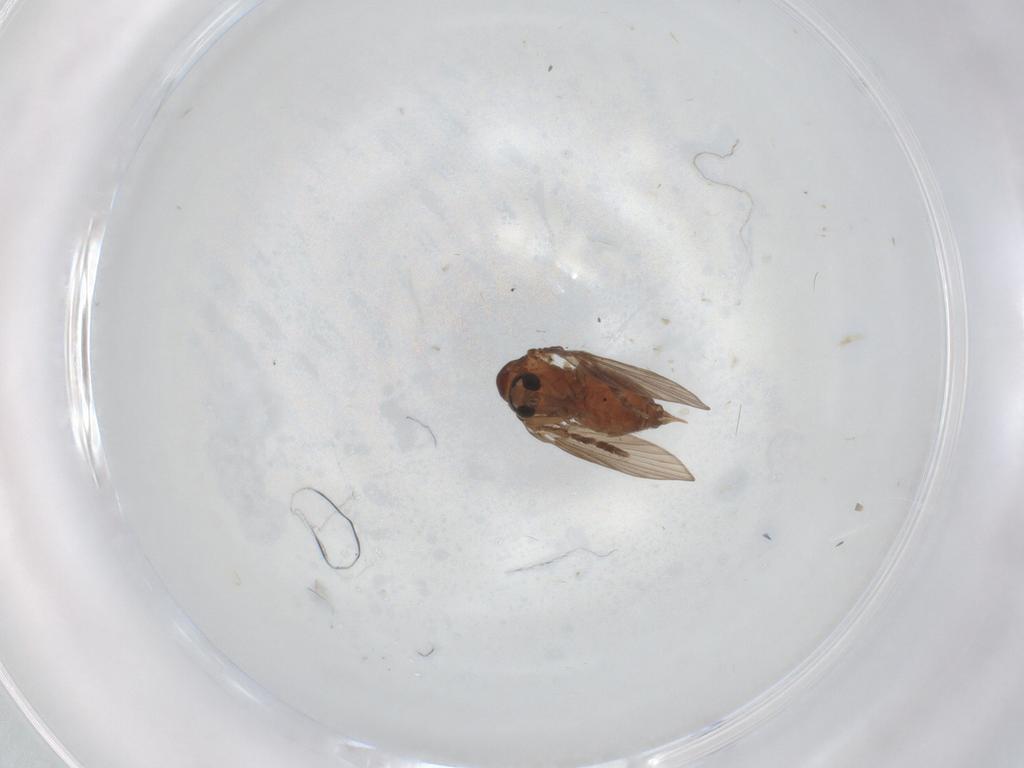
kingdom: Animalia
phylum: Arthropoda
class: Insecta
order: Diptera
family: Psychodidae
